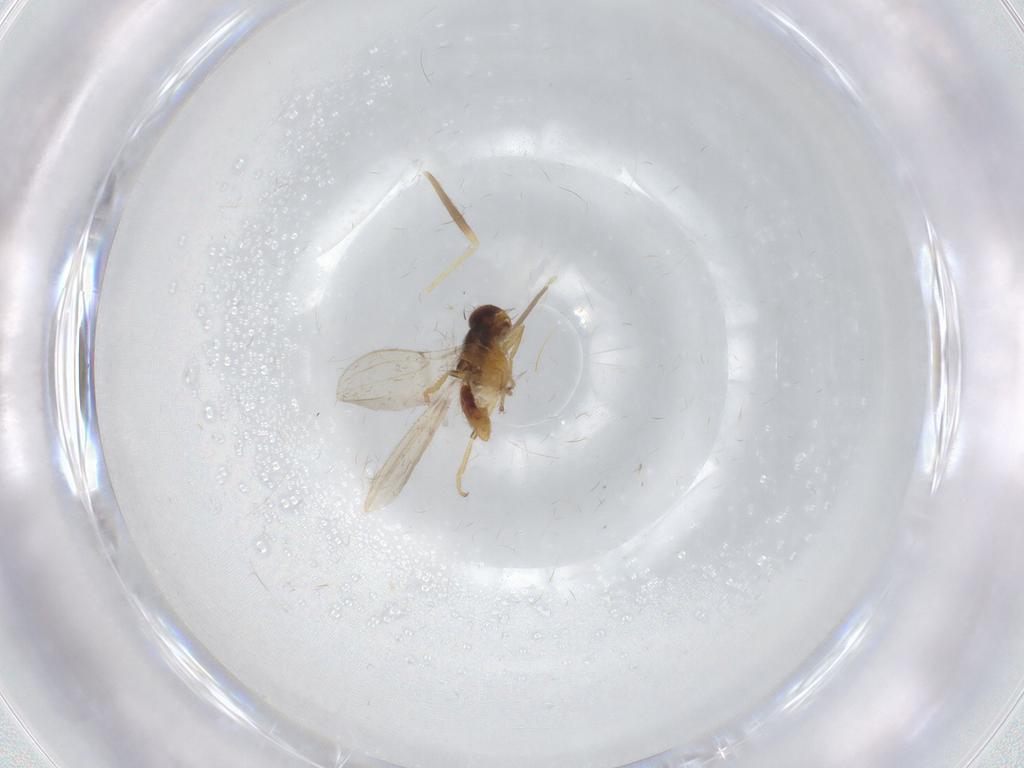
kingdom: Animalia
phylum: Arthropoda
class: Insecta
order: Diptera
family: Periscelididae
